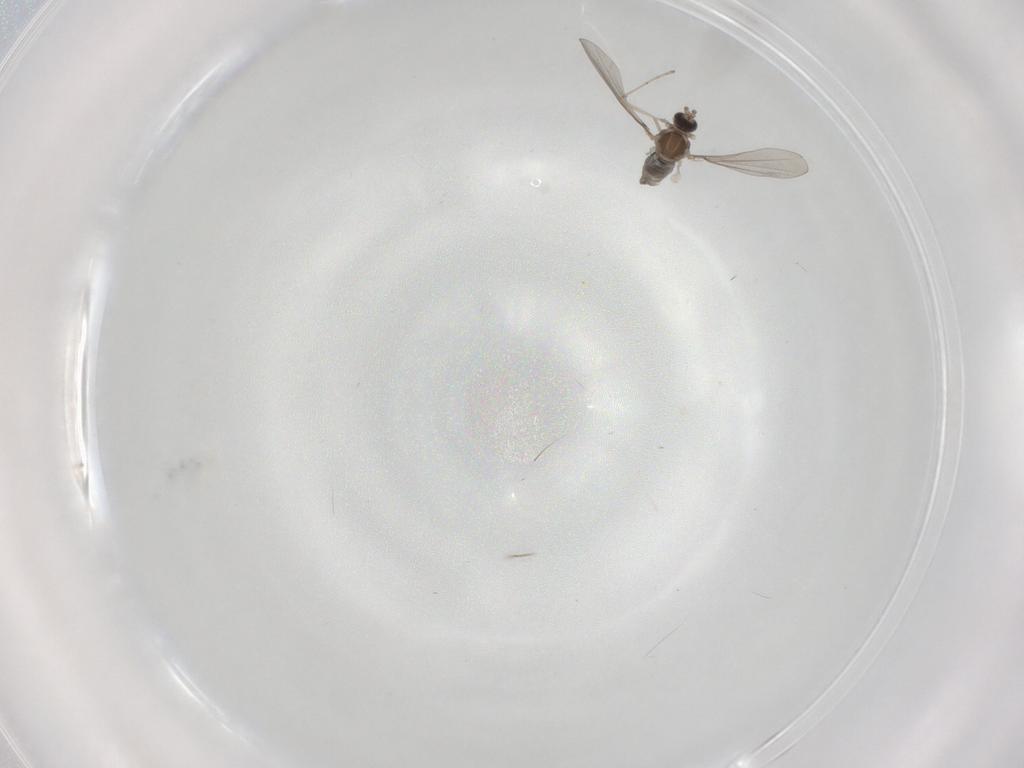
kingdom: Animalia
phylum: Arthropoda
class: Insecta
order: Diptera
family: Cecidomyiidae
